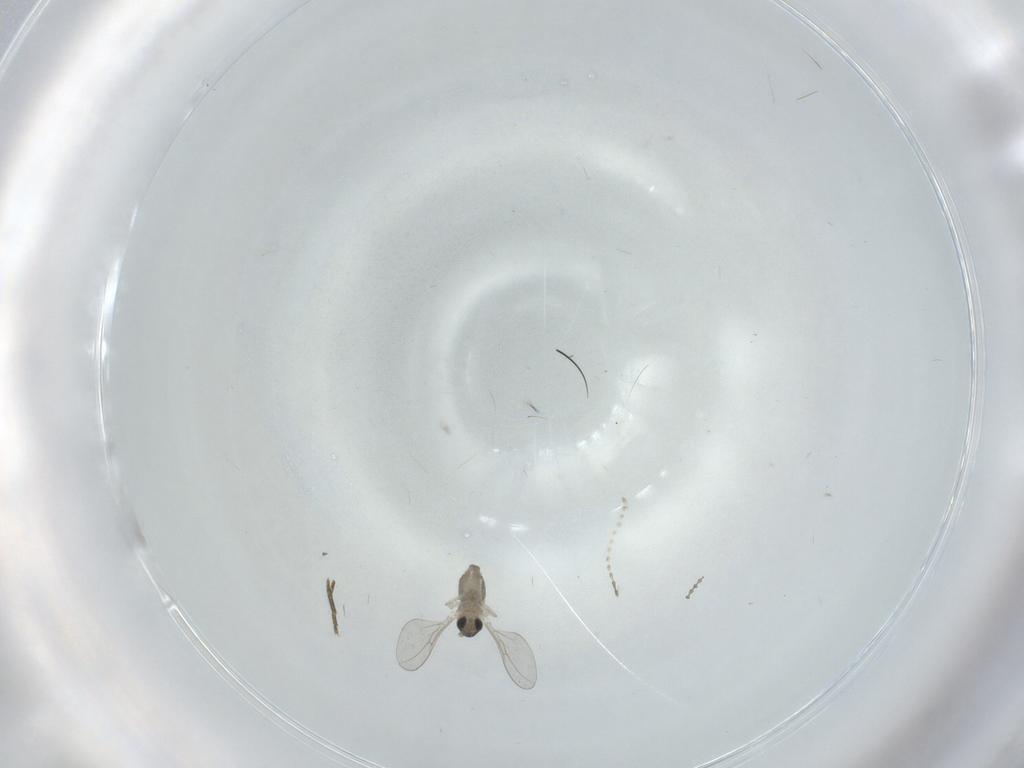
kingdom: Animalia
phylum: Arthropoda
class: Insecta
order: Diptera
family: Cecidomyiidae
